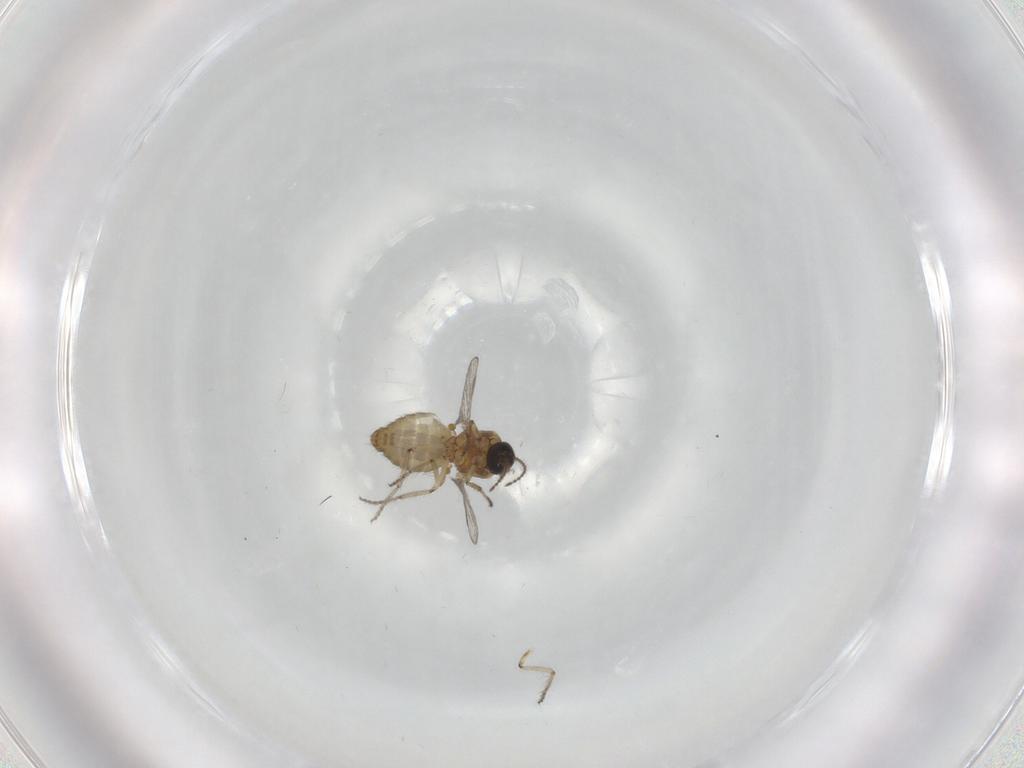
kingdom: Animalia
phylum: Arthropoda
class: Insecta
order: Diptera
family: Ceratopogonidae
